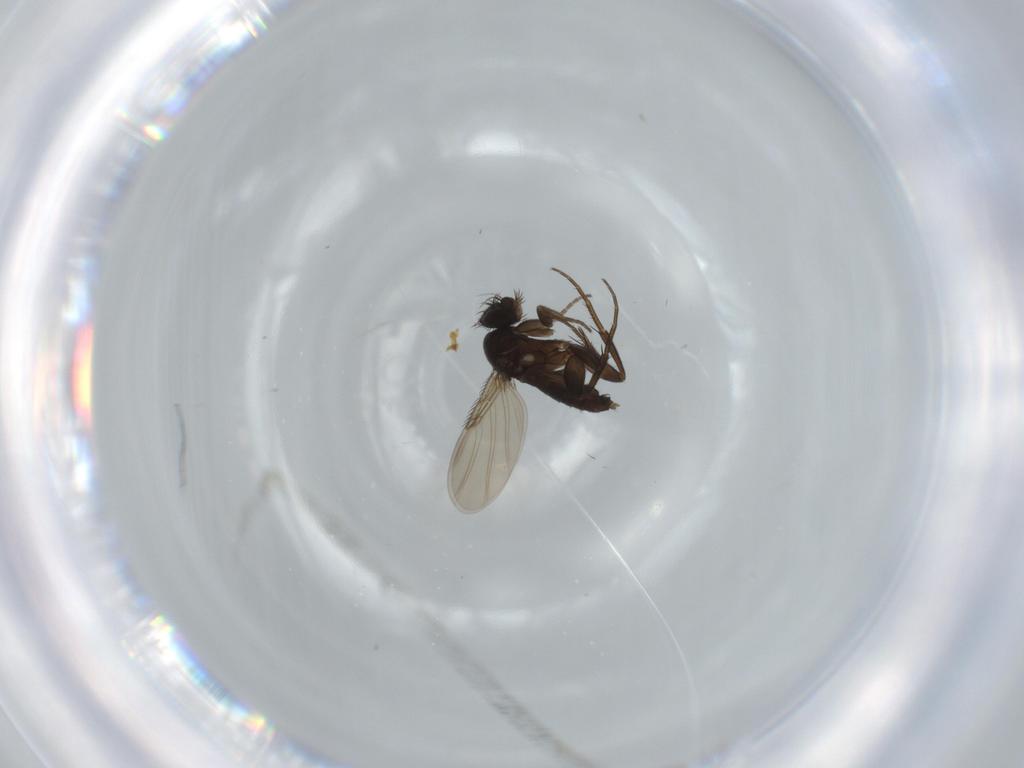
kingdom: Animalia
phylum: Arthropoda
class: Insecta
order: Diptera
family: Phoridae
